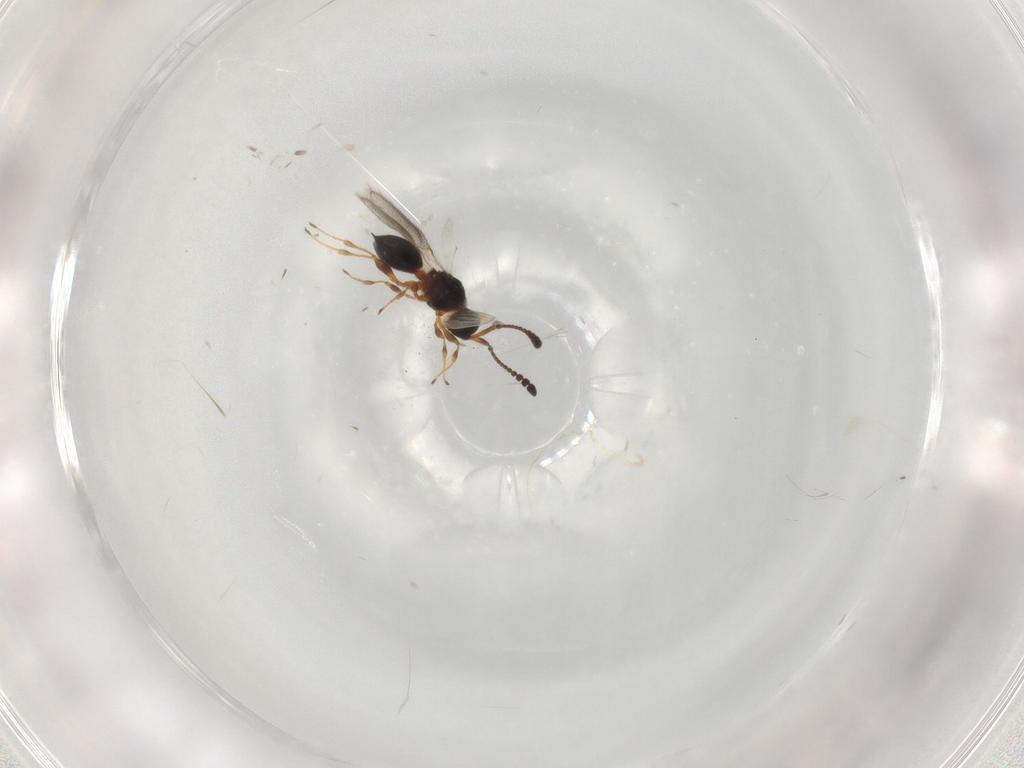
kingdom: Animalia
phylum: Arthropoda
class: Insecta
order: Hymenoptera
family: Diapriidae
